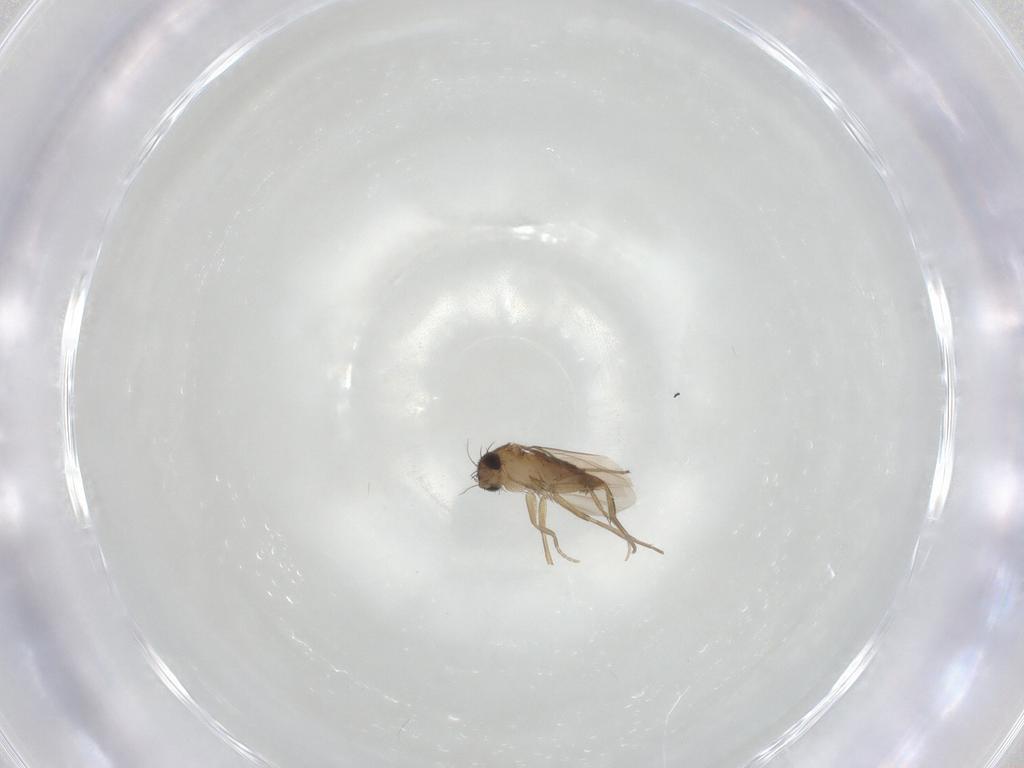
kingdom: Animalia
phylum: Arthropoda
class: Insecta
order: Diptera
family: Phoridae
